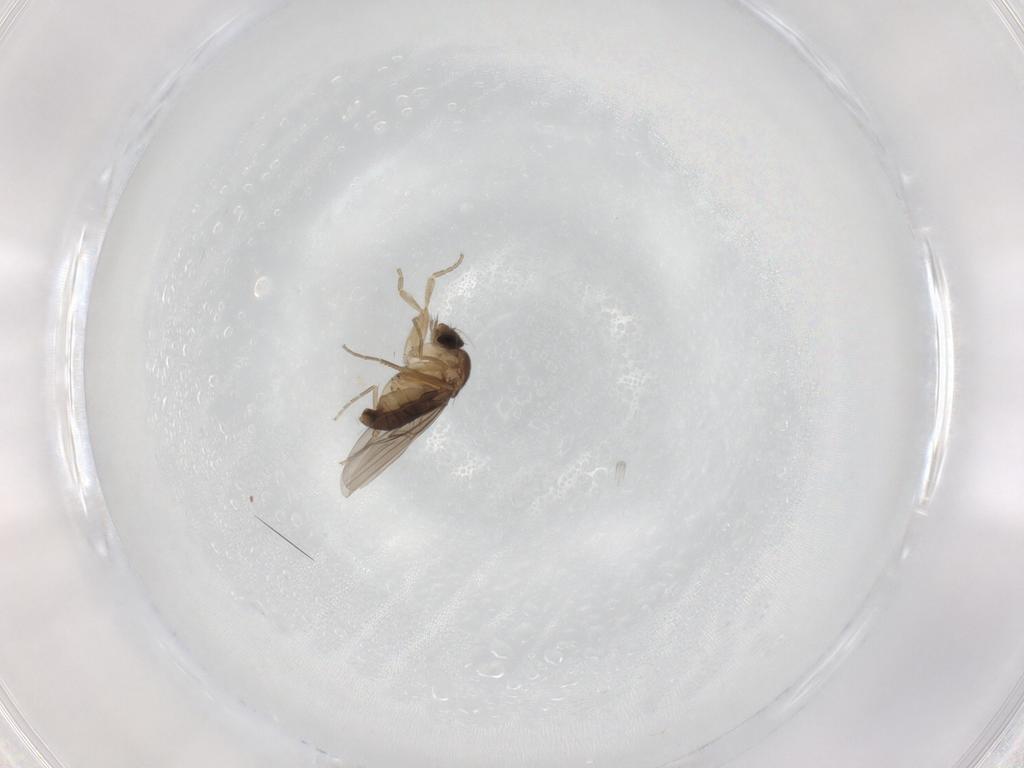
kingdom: Animalia
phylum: Arthropoda
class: Insecta
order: Diptera
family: Phoridae
